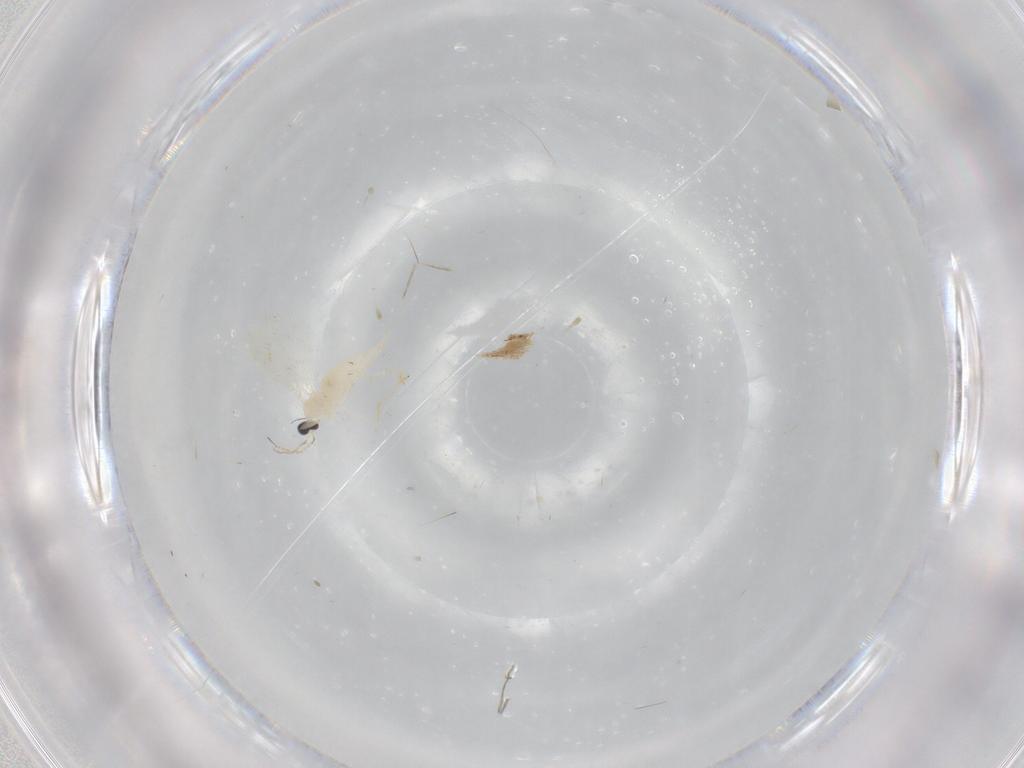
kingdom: Animalia
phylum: Arthropoda
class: Insecta
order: Diptera
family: Cecidomyiidae
